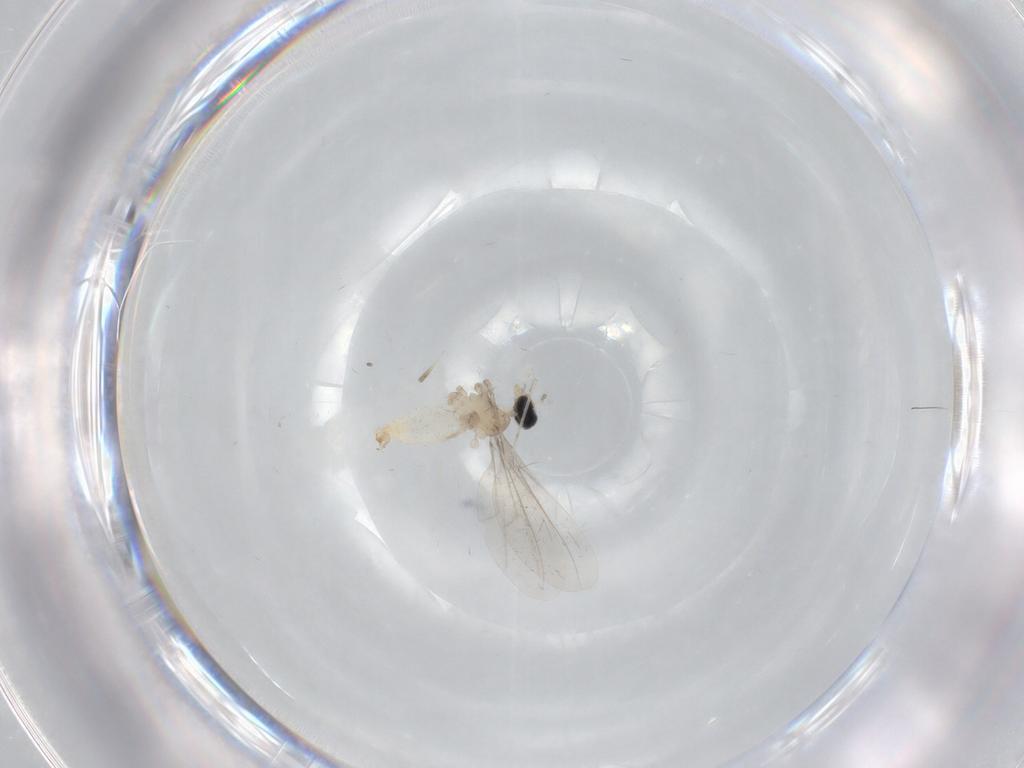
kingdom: Animalia
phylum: Arthropoda
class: Insecta
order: Diptera
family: Cecidomyiidae
